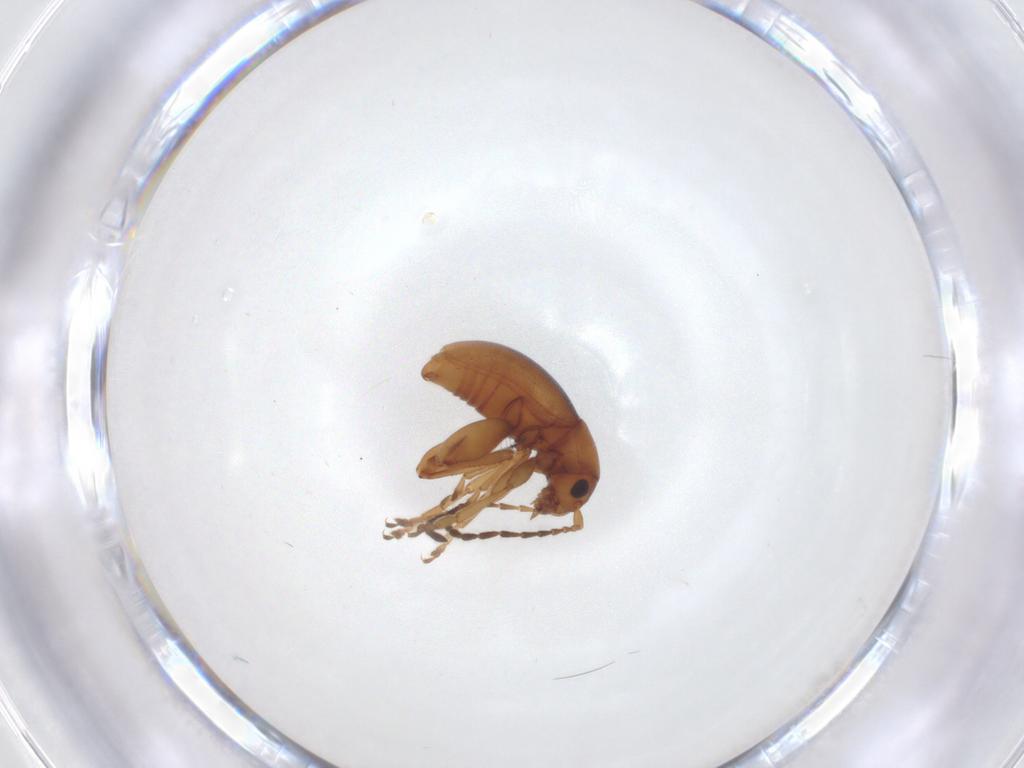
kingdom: Animalia
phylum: Arthropoda
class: Insecta
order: Coleoptera
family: Chrysomelidae
